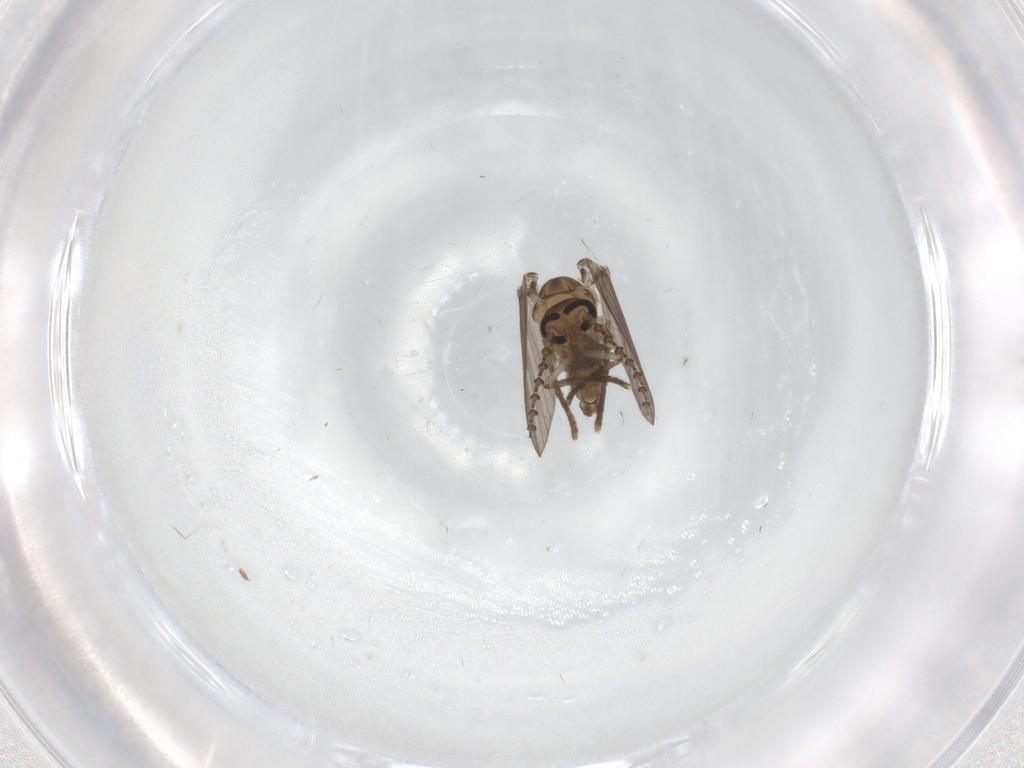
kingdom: Animalia
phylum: Arthropoda
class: Insecta
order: Diptera
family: Psychodidae
